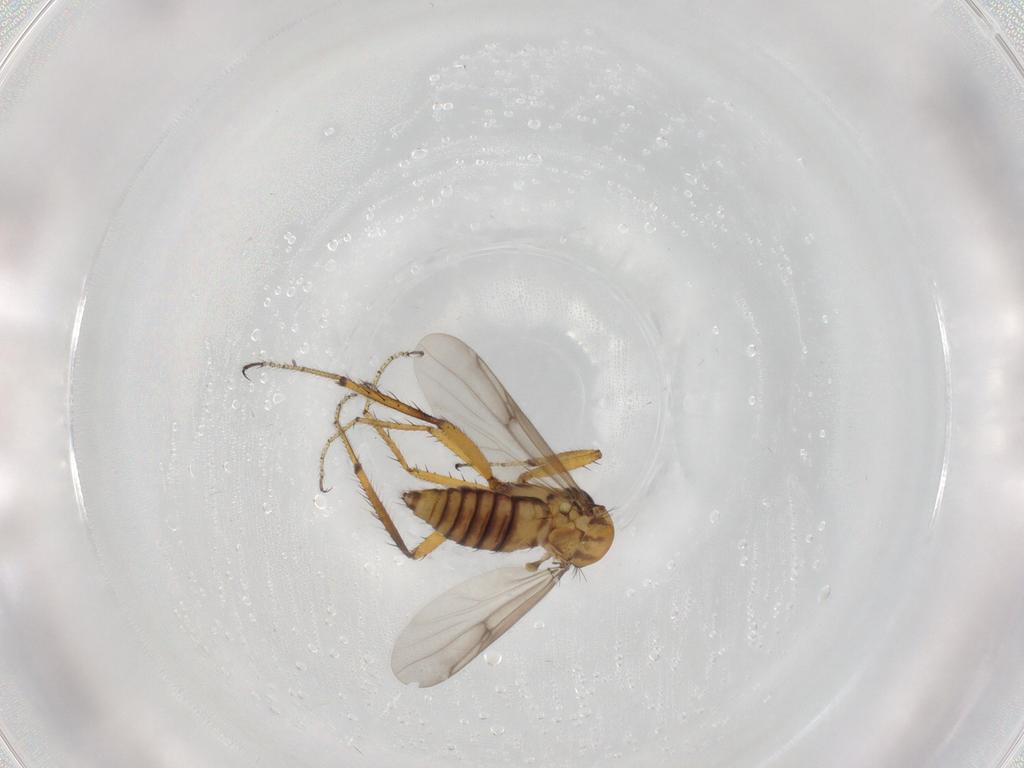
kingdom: Animalia
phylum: Arthropoda
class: Insecta
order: Diptera
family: Ceratopogonidae
